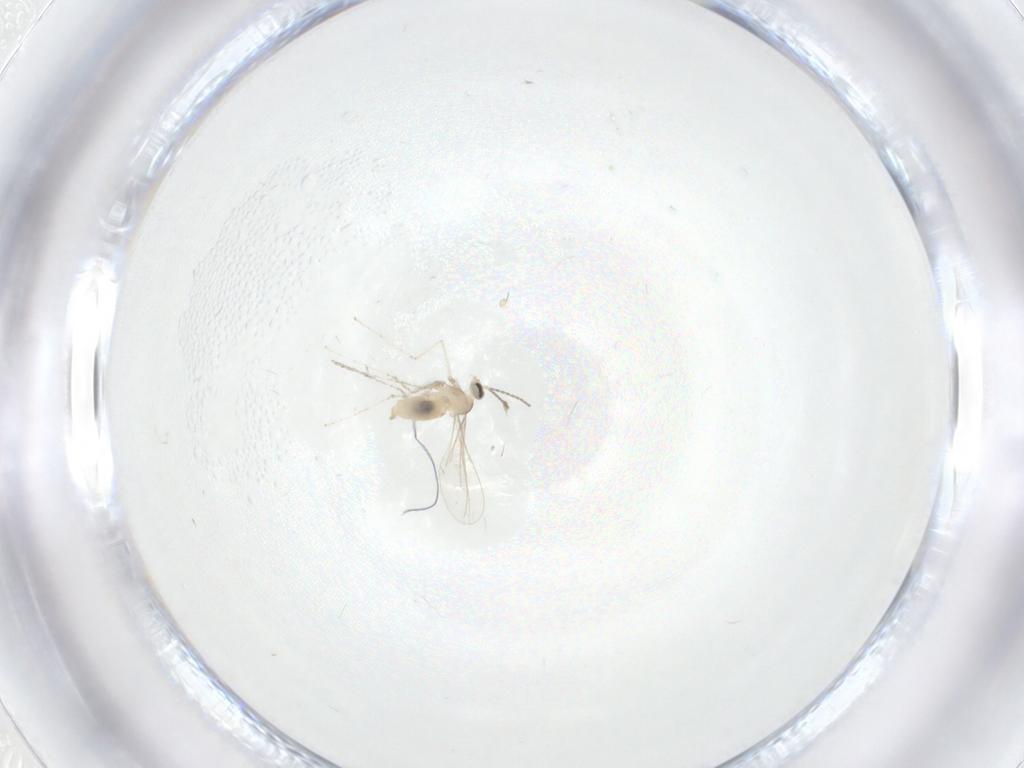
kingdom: Animalia
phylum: Arthropoda
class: Insecta
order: Diptera
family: Cecidomyiidae
